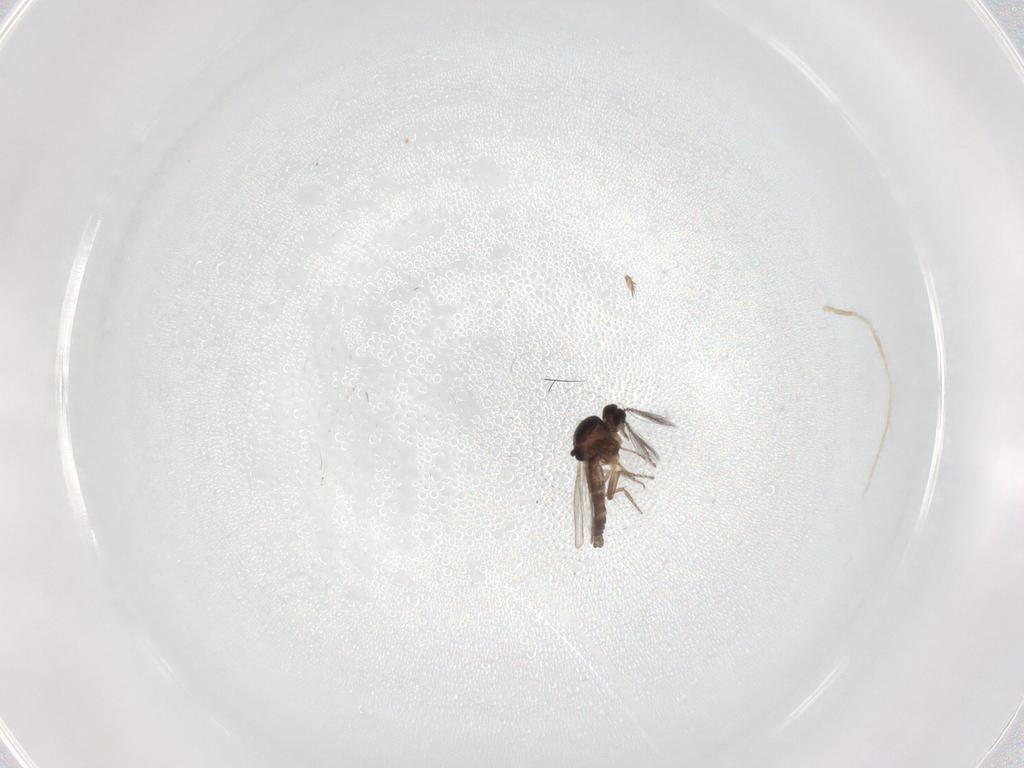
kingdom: Animalia
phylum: Arthropoda
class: Insecta
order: Diptera
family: Ceratopogonidae
